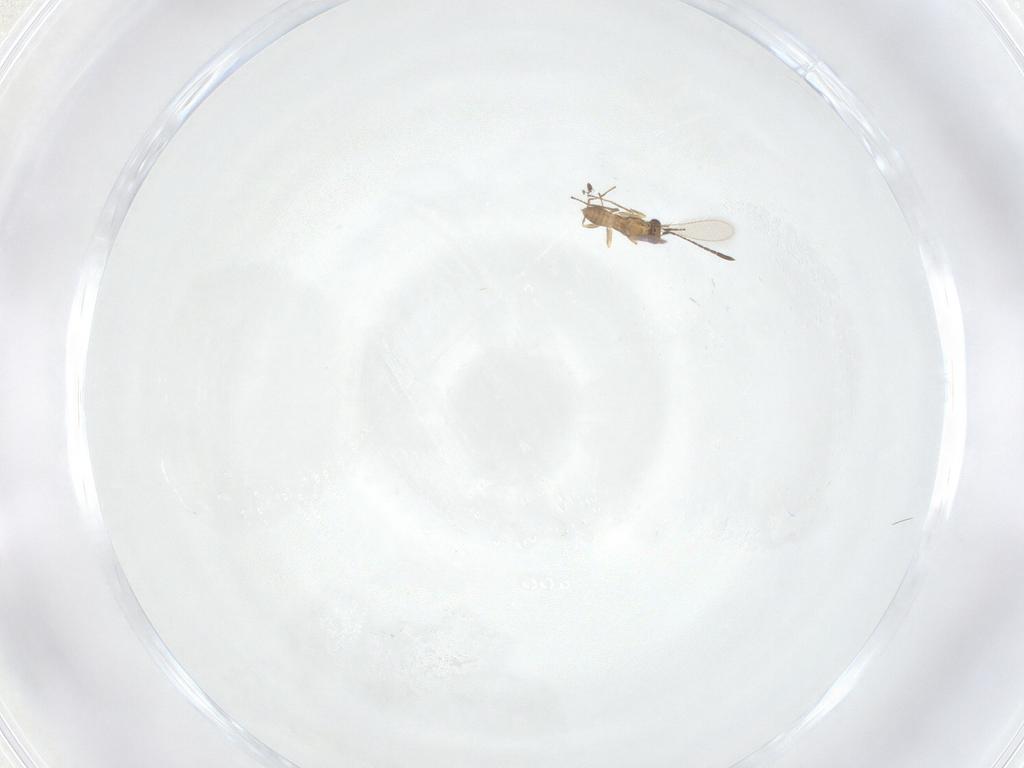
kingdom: Animalia
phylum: Arthropoda
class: Insecta
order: Hymenoptera
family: Mymaridae
